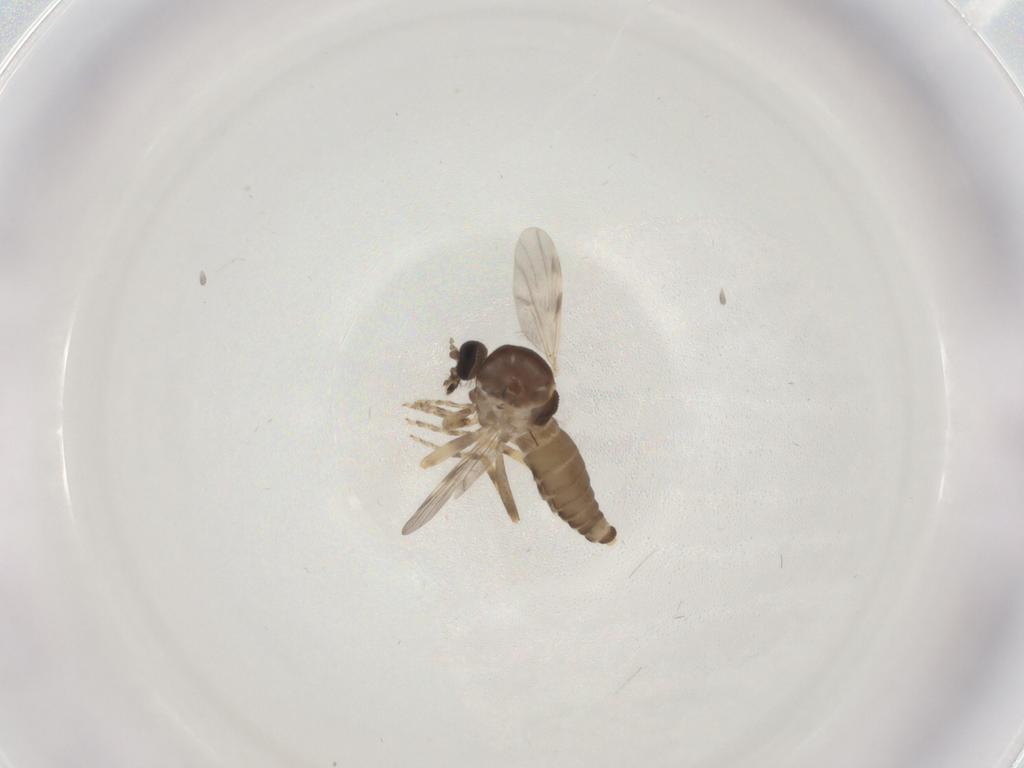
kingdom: Animalia
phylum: Arthropoda
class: Insecta
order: Diptera
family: Ceratopogonidae
